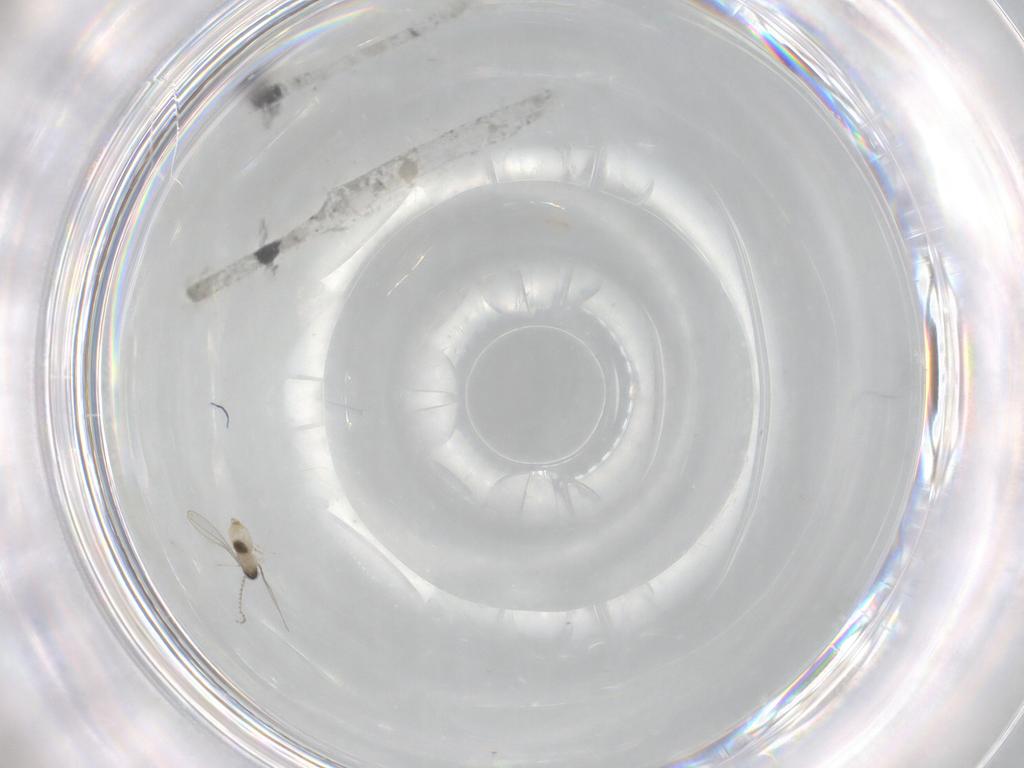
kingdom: Animalia
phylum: Arthropoda
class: Insecta
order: Diptera
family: Cecidomyiidae
